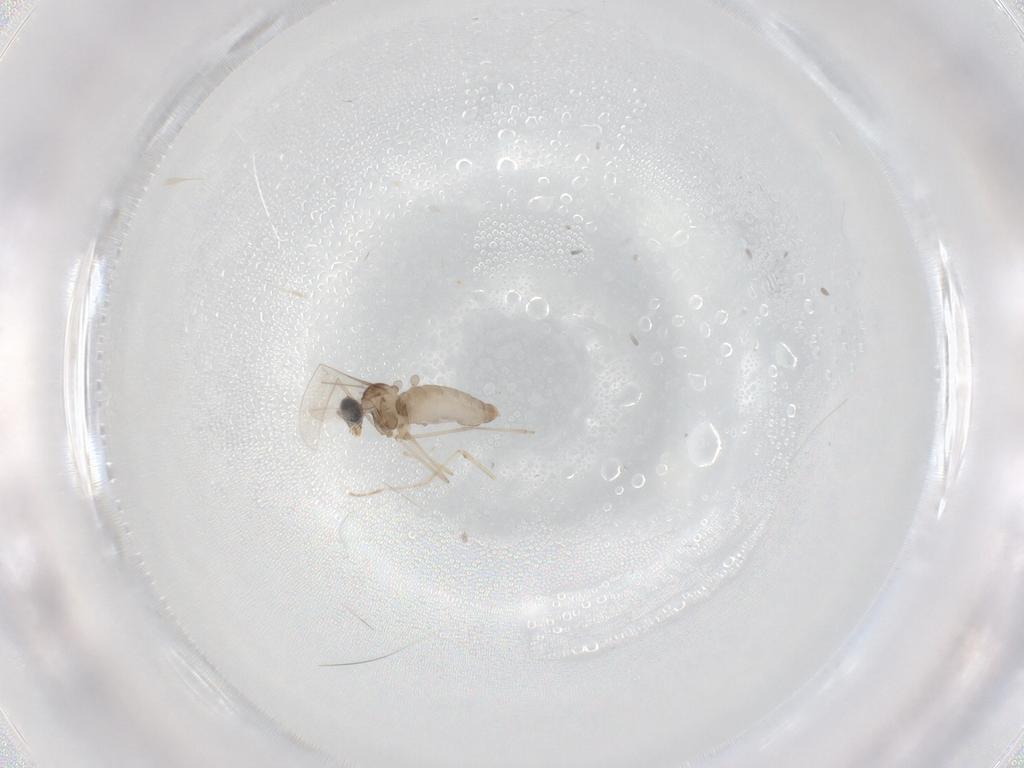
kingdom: Animalia
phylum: Arthropoda
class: Insecta
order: Diptera
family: Cecidomyiidae
